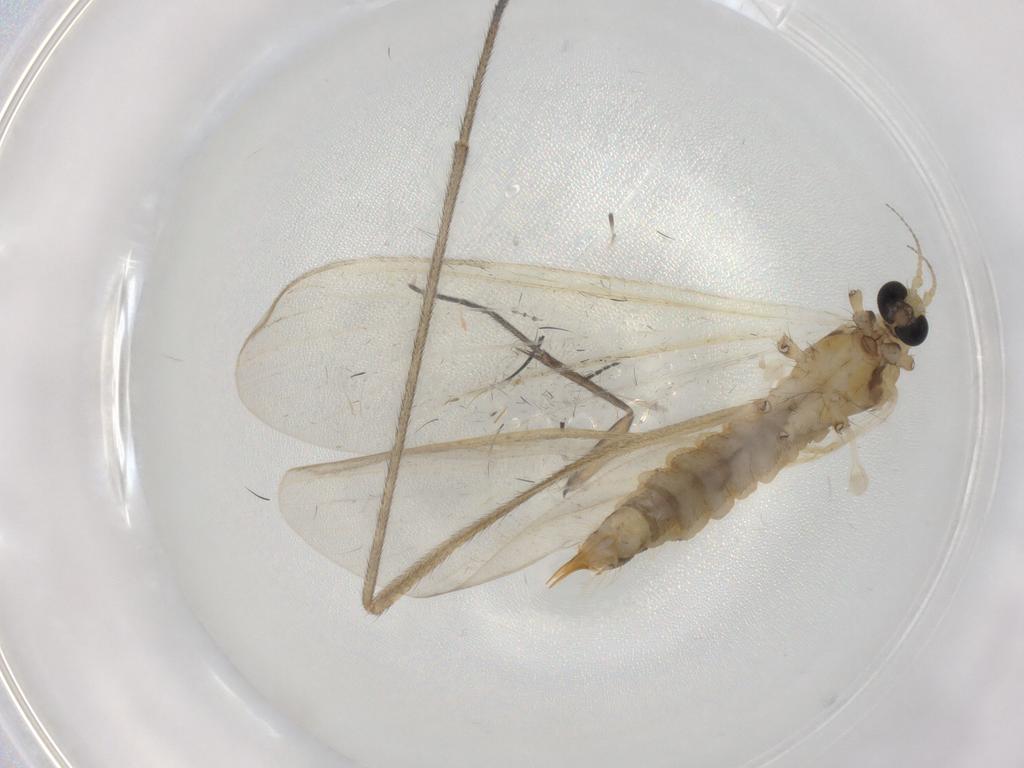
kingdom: Animalia
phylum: Arthropoda
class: Insecta
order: Diptera
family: Limoniidae
